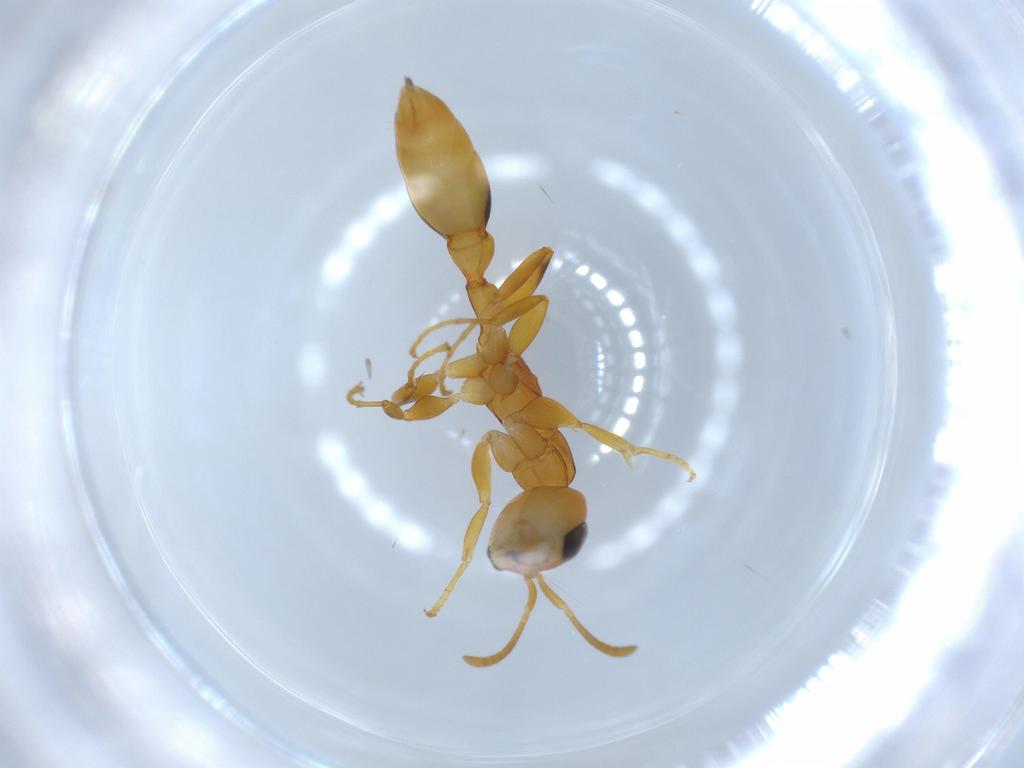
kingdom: Animalia
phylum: Arthropoda
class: Insecta
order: Hymenoptera
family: Formicidae
